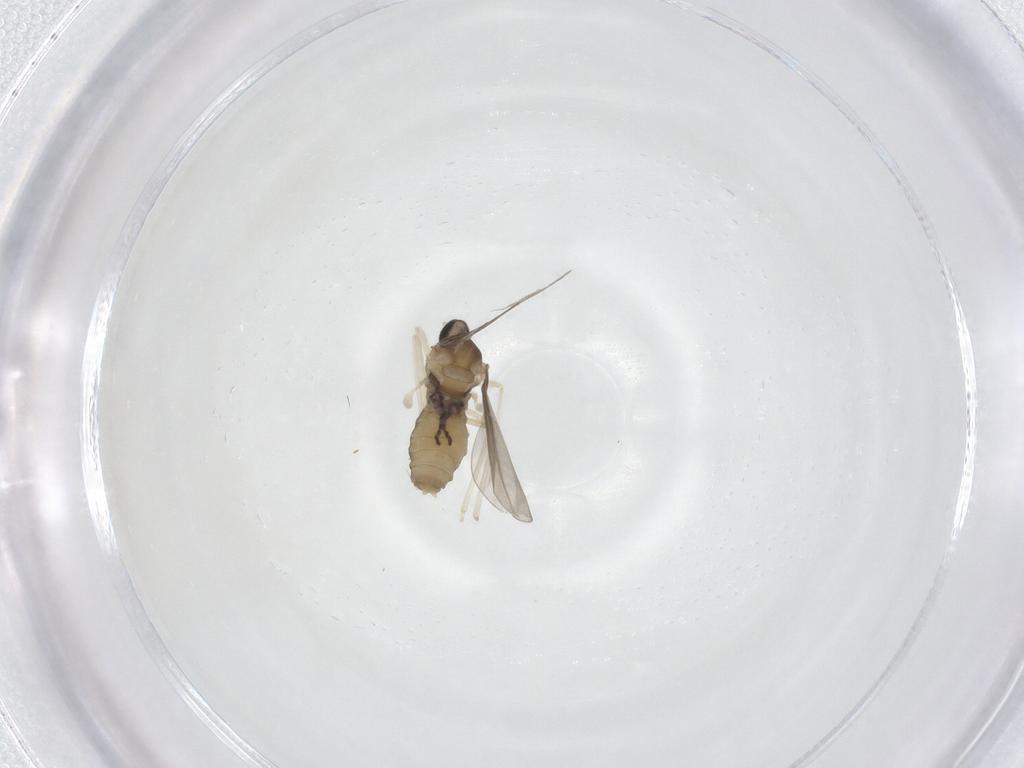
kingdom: Animalia
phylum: Arthropoda
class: Insecta
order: Diptera
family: Cecidomyiidae
